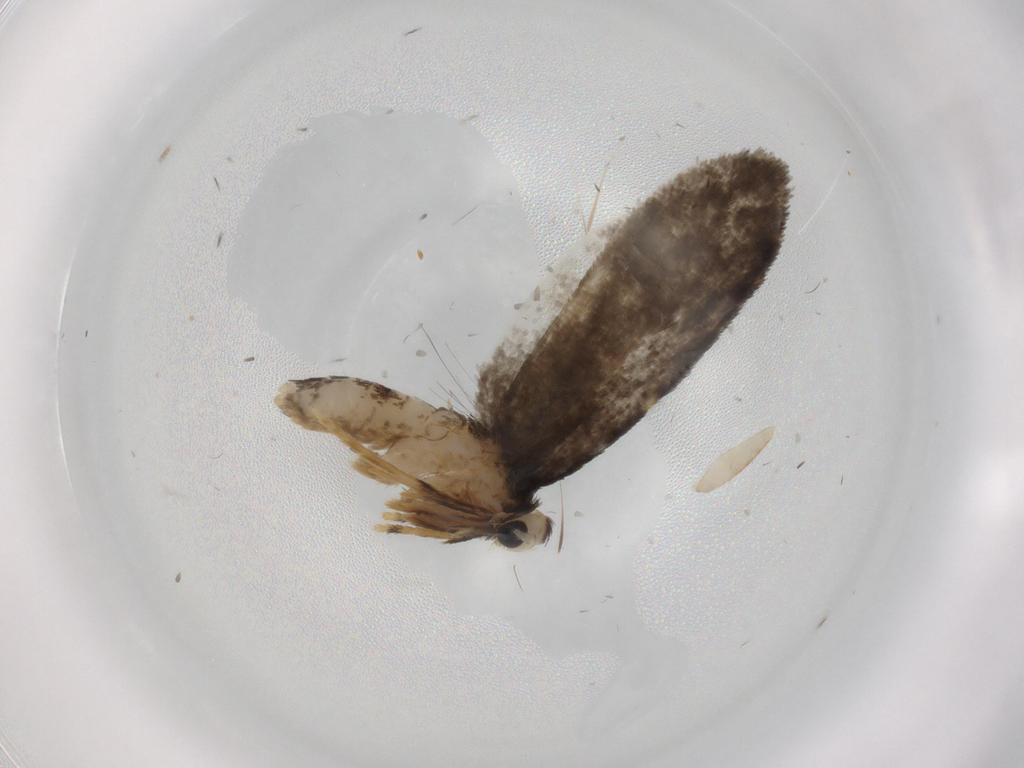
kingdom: Animalia
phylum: Arthropoda
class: Insecta
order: Lepidoptera
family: Psychidae
